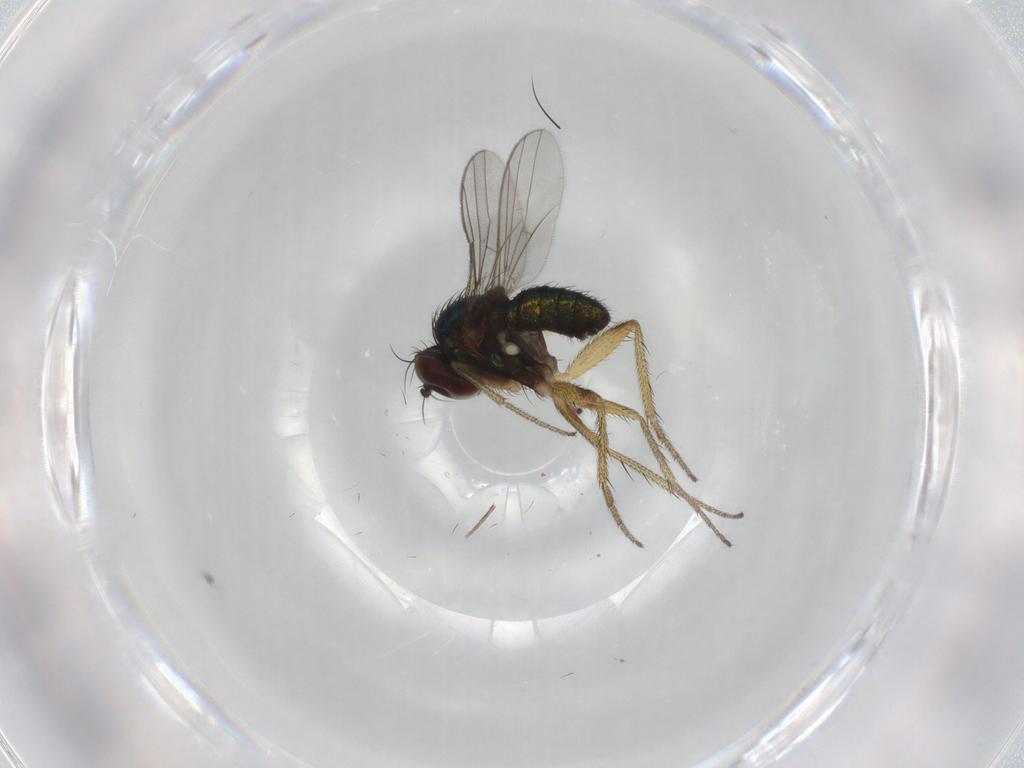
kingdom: Animalia
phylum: Arthropoda
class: Insecta
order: Diptera
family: Dolichopodidae
